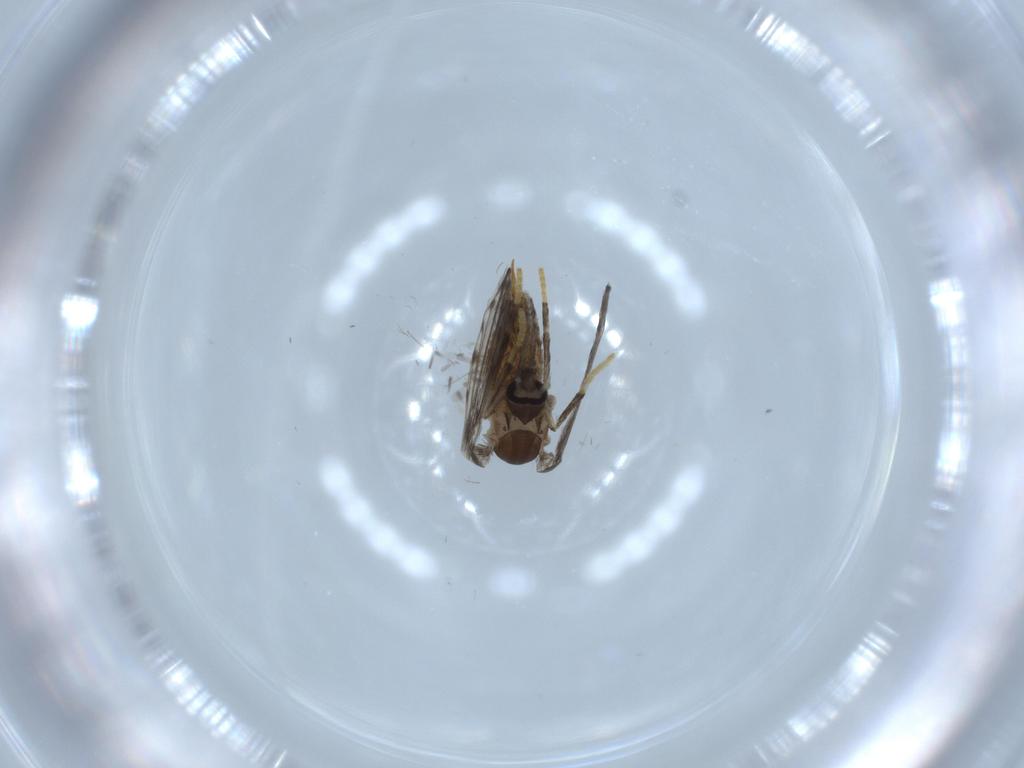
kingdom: Animalia
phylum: Arthropoda
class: Insecta
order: Diptera
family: Psychodidae
